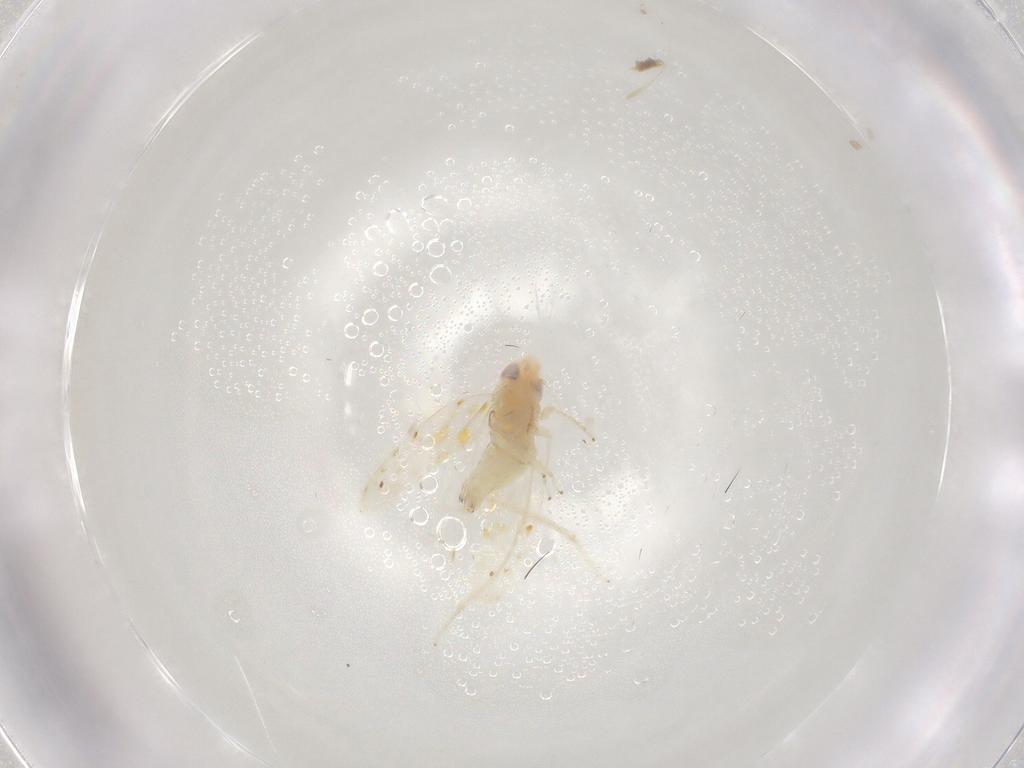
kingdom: Animalia
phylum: Arthropoda
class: Insecta
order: Hemiptera
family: Cicadellidae
